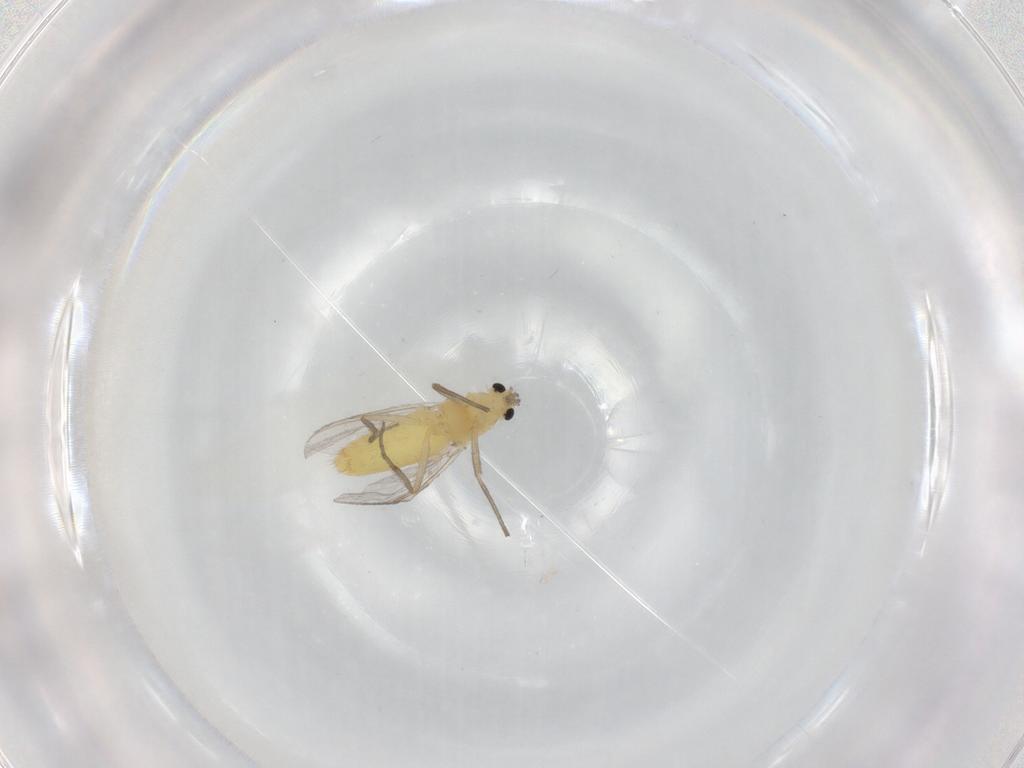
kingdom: Animalia
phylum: Arthropoda
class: Insecta
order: Diptera
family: Chironomidae
